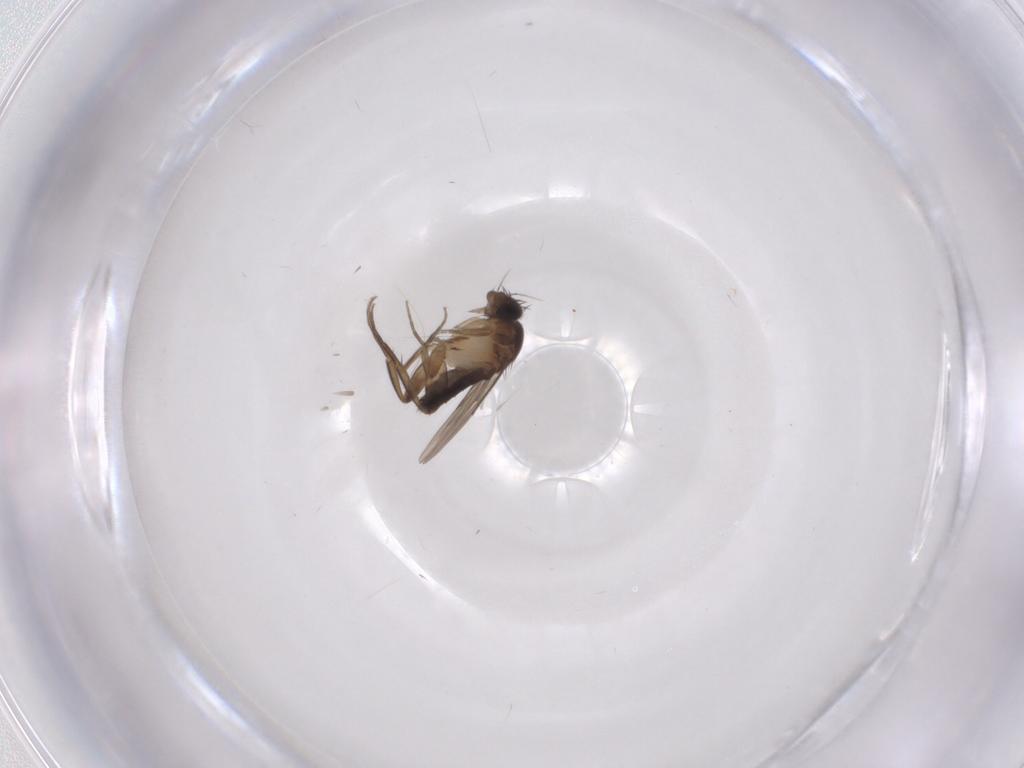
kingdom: Animalia
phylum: Arthropoda
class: Insecta
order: Diptera
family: Phoridae
